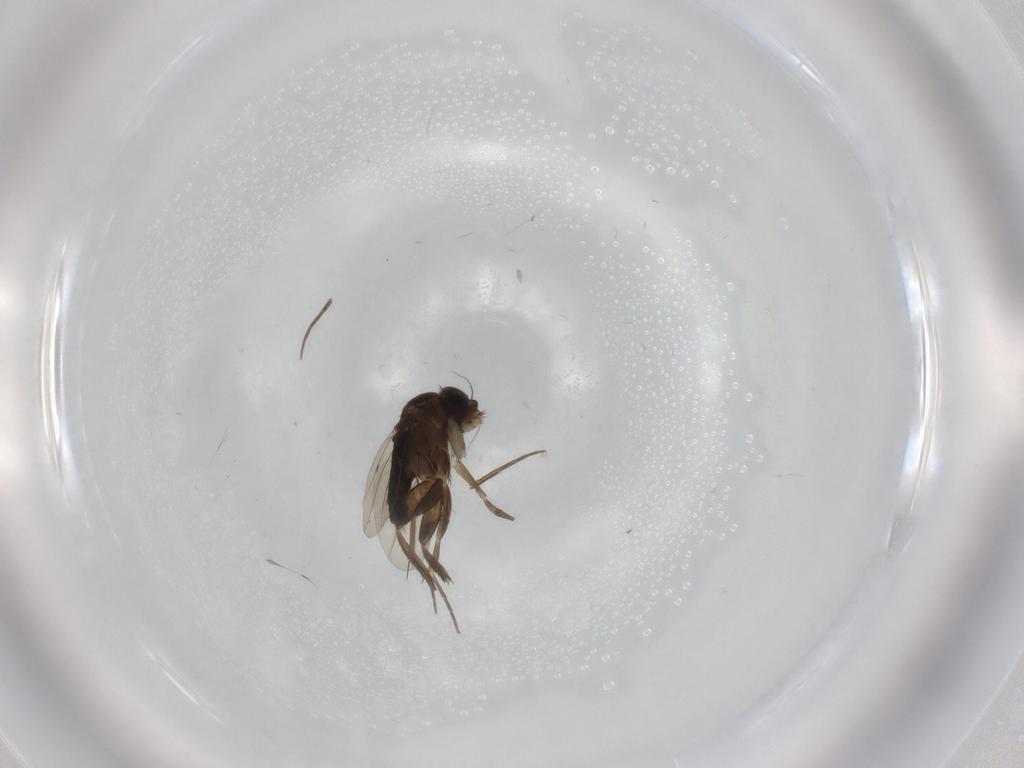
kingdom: Animalia
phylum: Arthropoda
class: Insecta
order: Diptera
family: Phoridae
